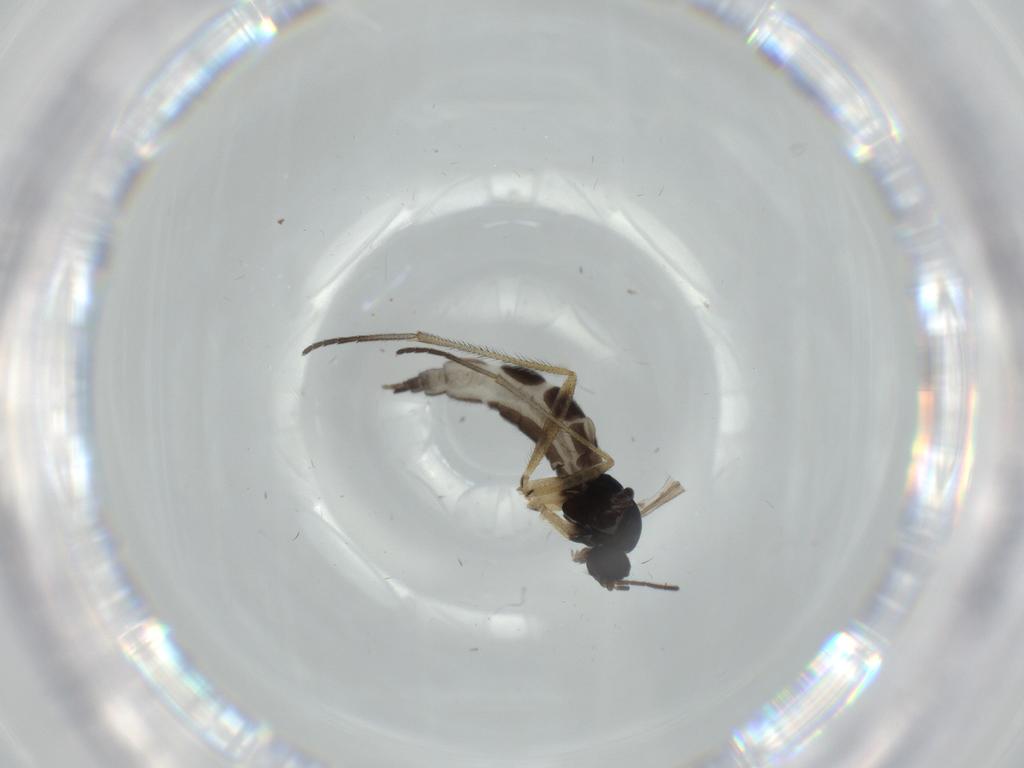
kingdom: Animalia
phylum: Arthropoda
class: Insecta
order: Diptera
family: Sciaridae
